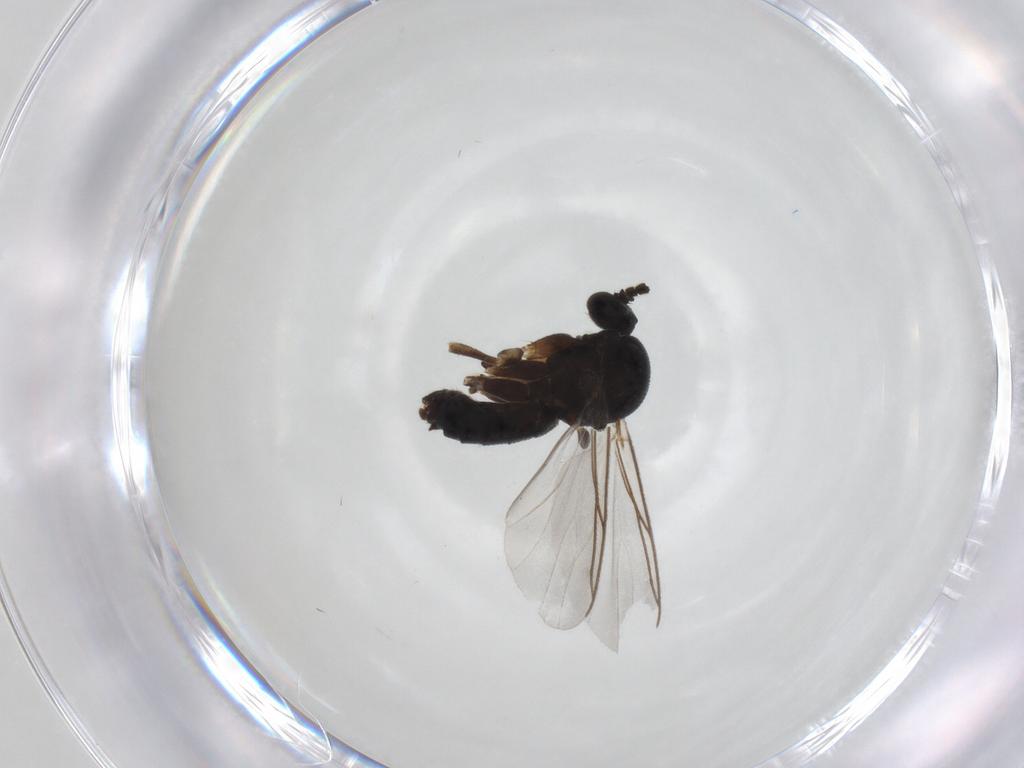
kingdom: Animalia
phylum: Arthropoda
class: Insecta
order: Diptera
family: Mycetophilidae
